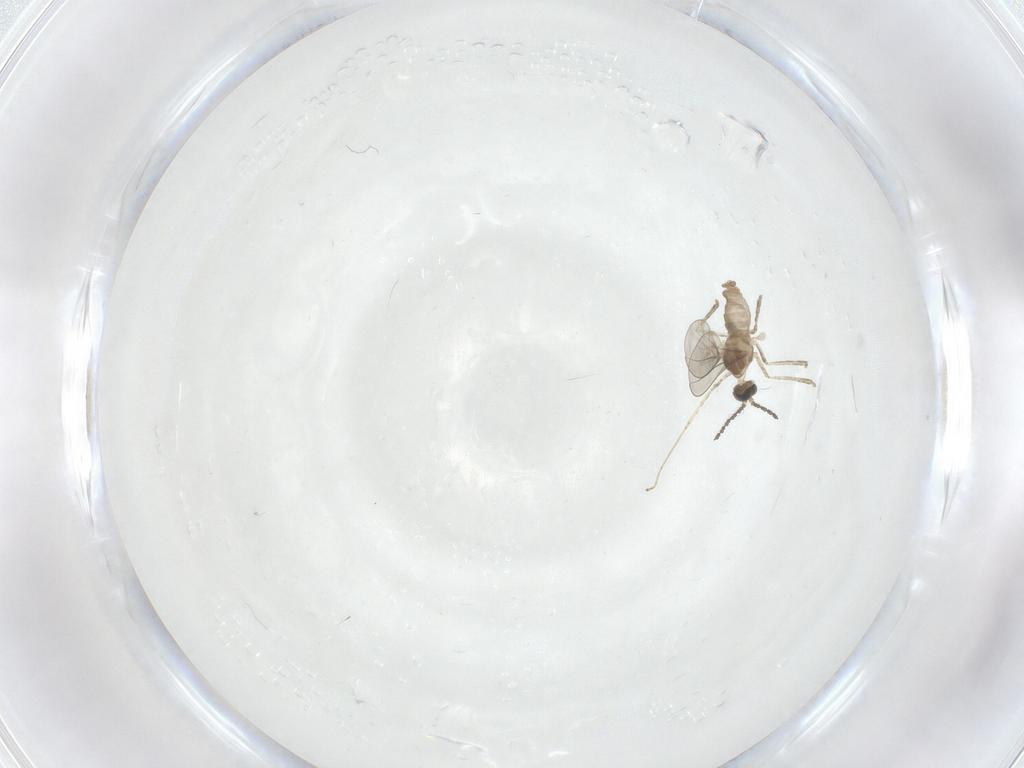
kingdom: Animalia
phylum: Arthropoda
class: Insecta
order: Diptera
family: Cecidomyiidae
